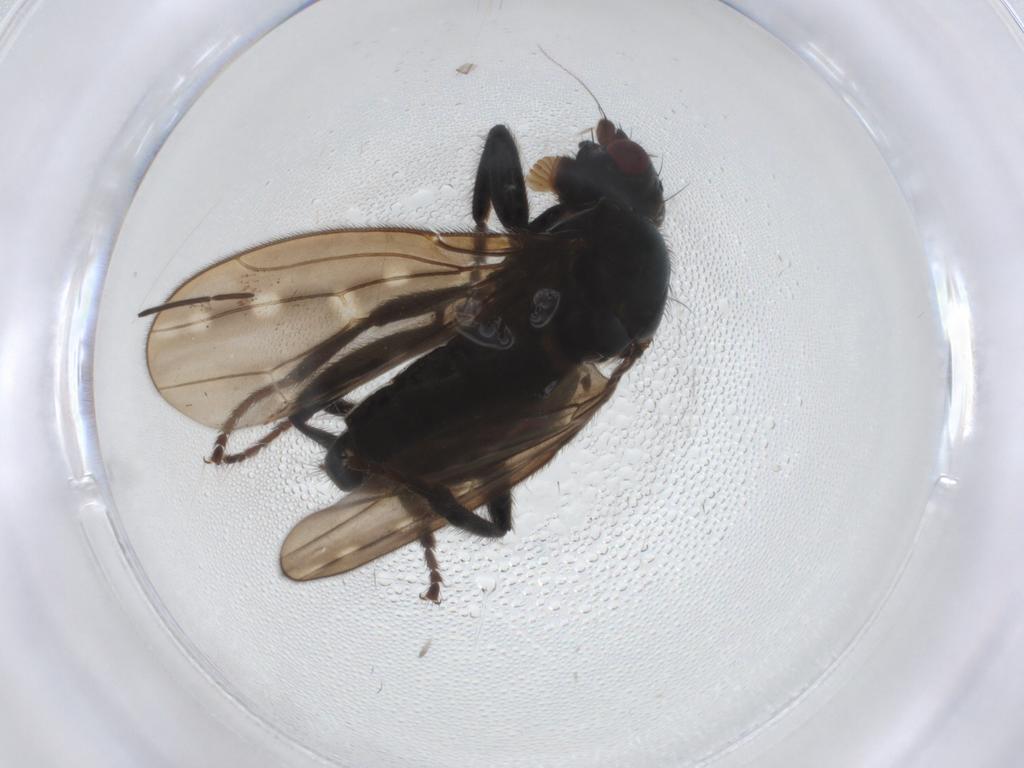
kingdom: Animalia
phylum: Arthropoda
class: Insecta
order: Diptera
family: Sphaeroceridae
